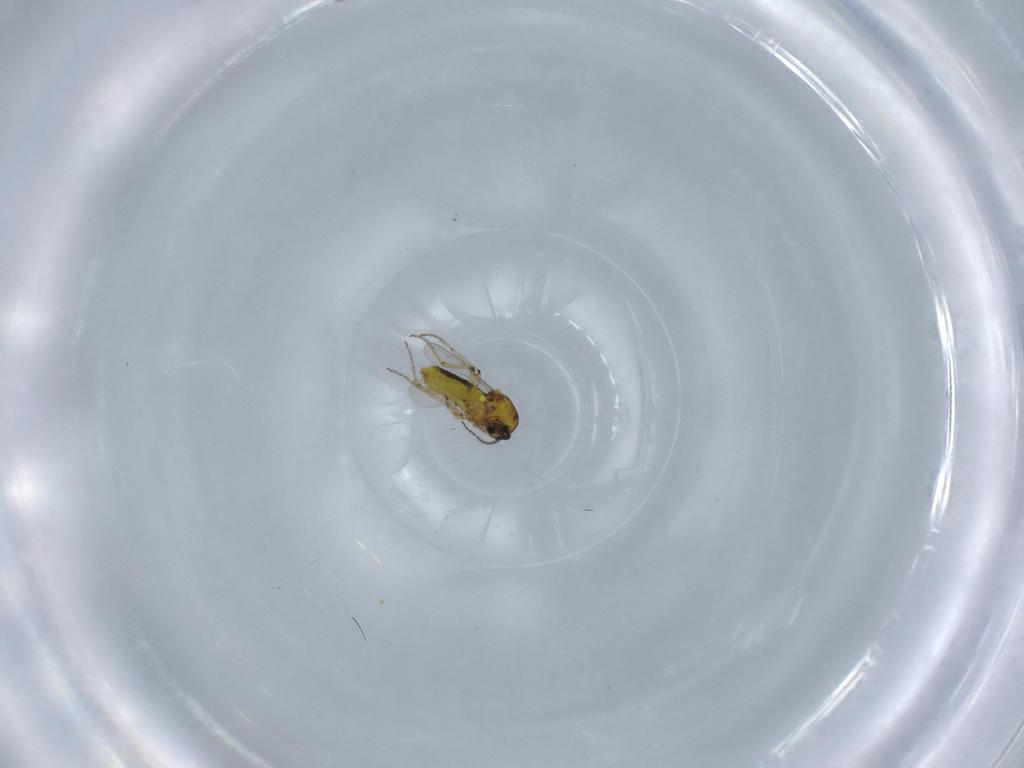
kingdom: Animalia
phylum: Arthropoda
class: Insecta
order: Diptera
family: Ceratopogonidae
